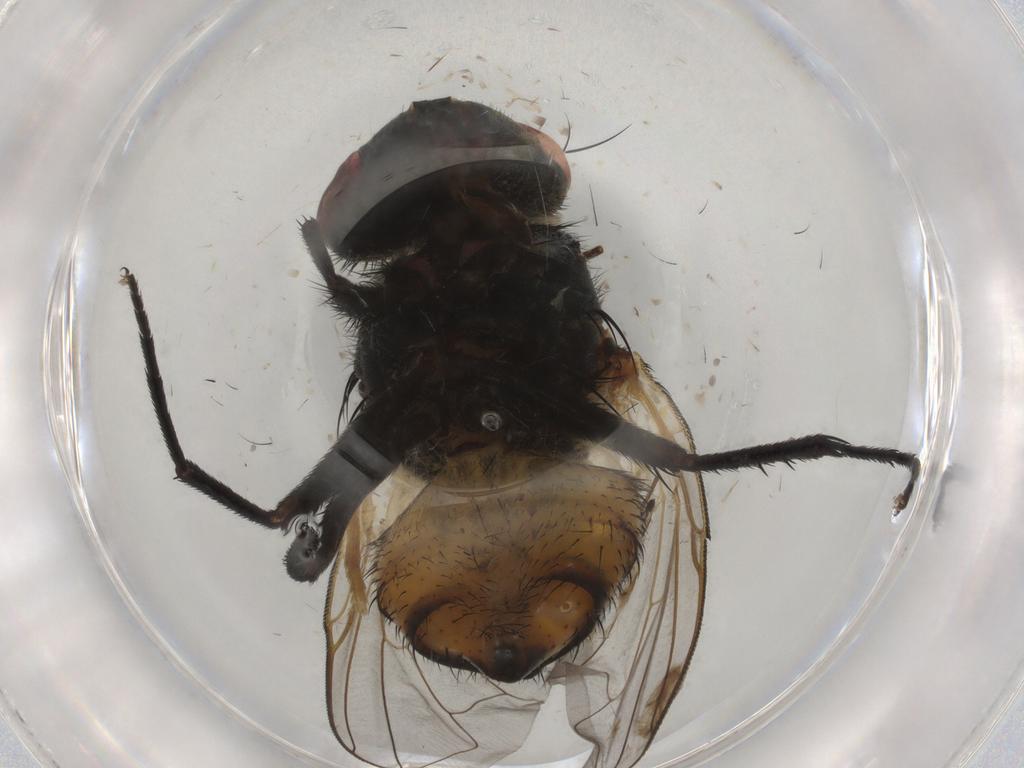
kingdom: Animalia
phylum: Arthropoda
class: Insecta
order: Diptera
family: Muscidae
